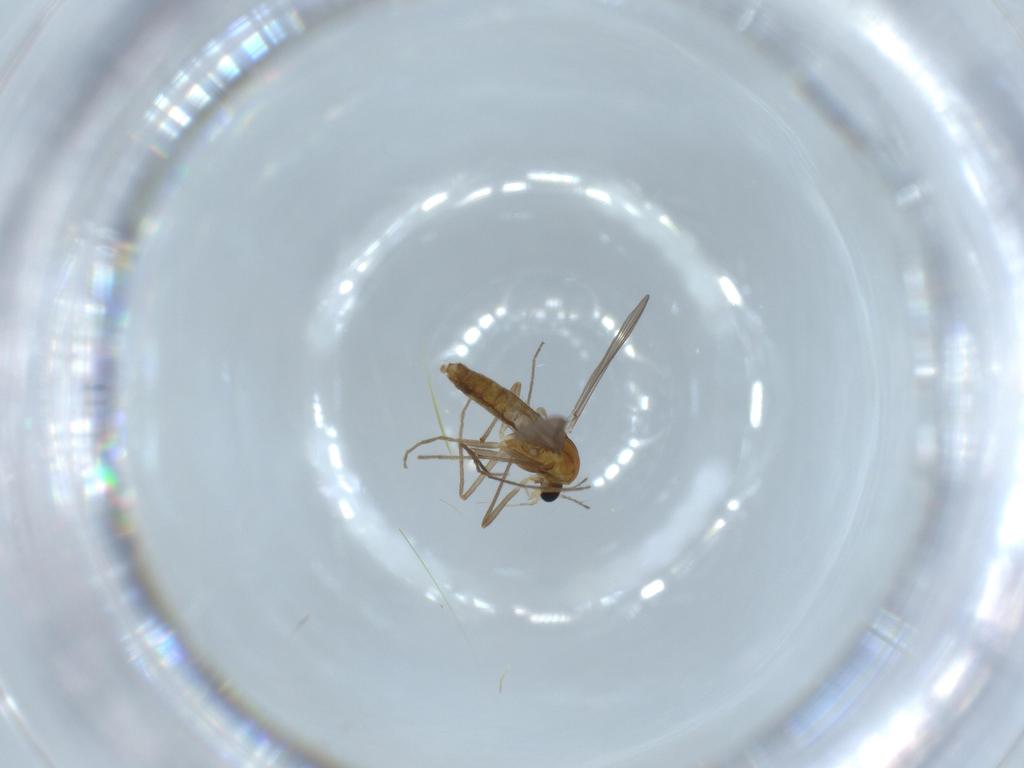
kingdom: Animalia
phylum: Arthropoda
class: Insecta
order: Diptera
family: Chironomidae
